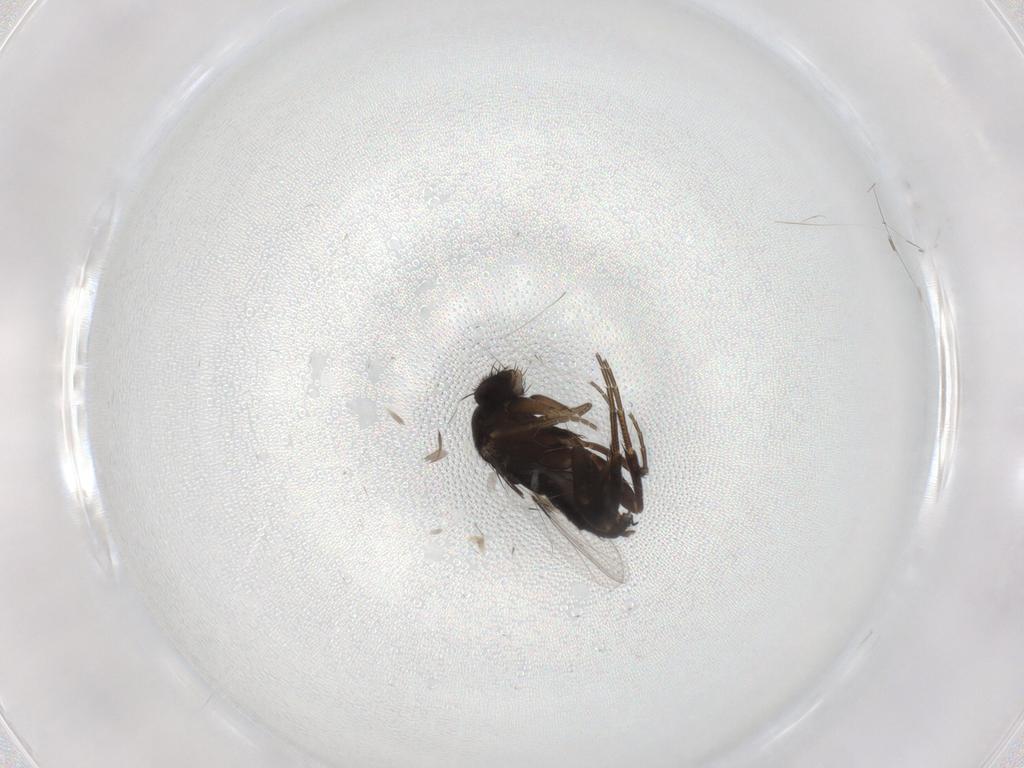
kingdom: Animalia
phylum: Arthropoda
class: Insecta
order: Diptera
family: Phoridae
